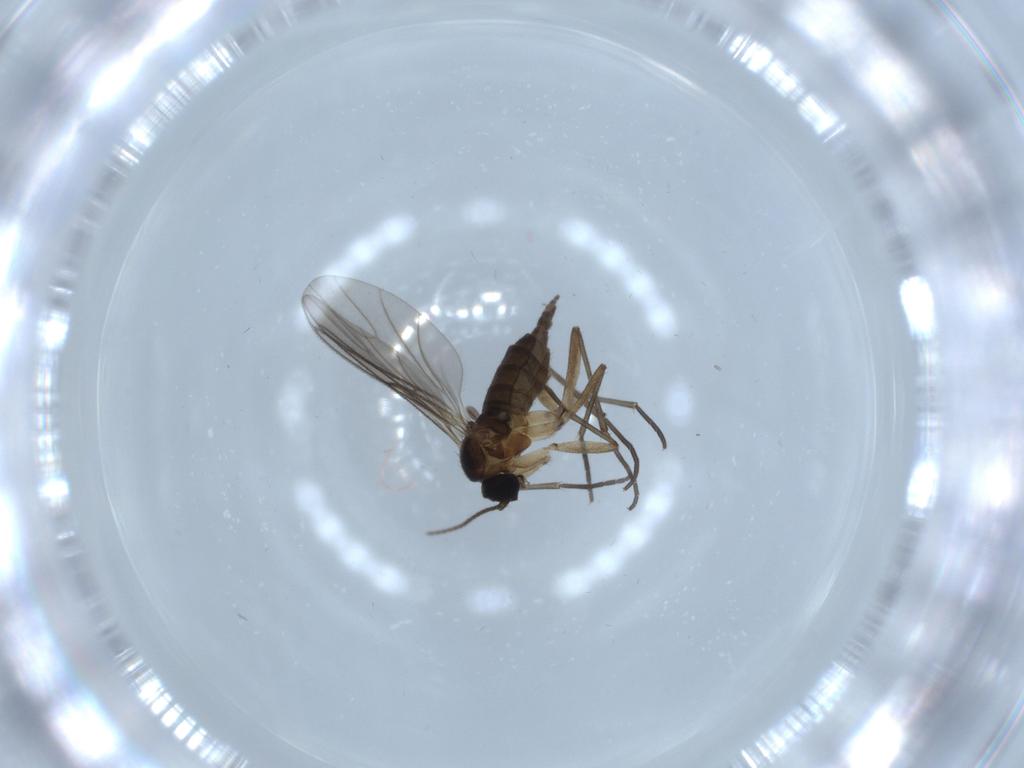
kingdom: Animalia
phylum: Arthropoda
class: Insecta
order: Diptera
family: Sciaridae
